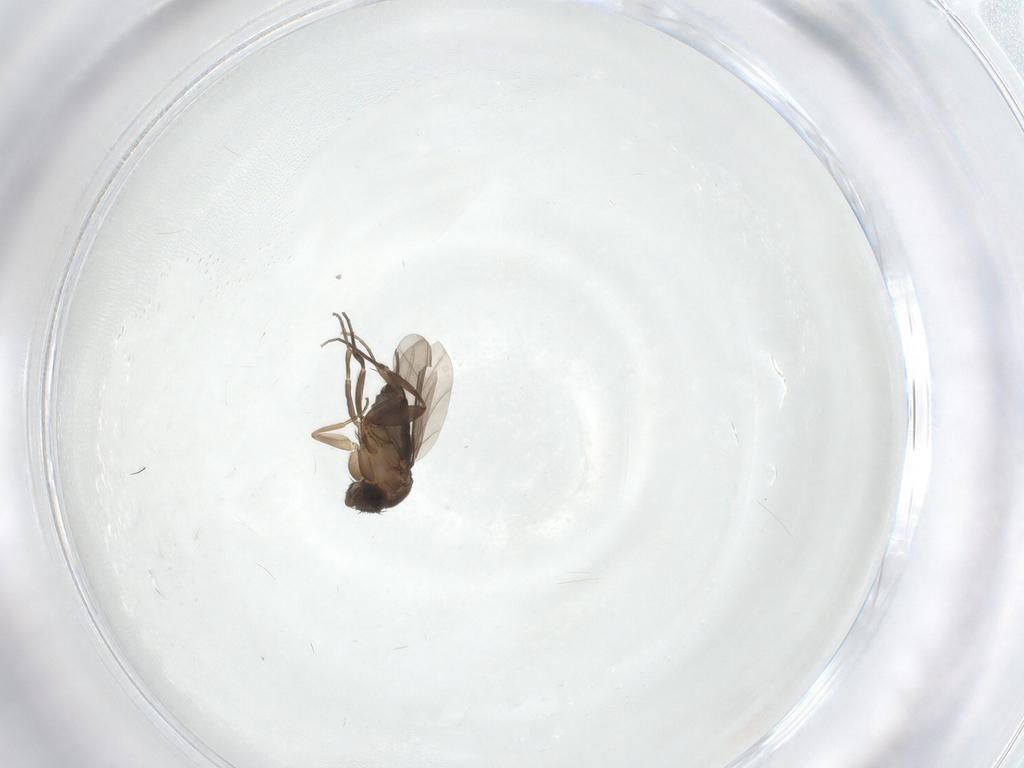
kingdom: Animalia
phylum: Arthropoda
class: Insecta
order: Diptera
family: Phoridae
